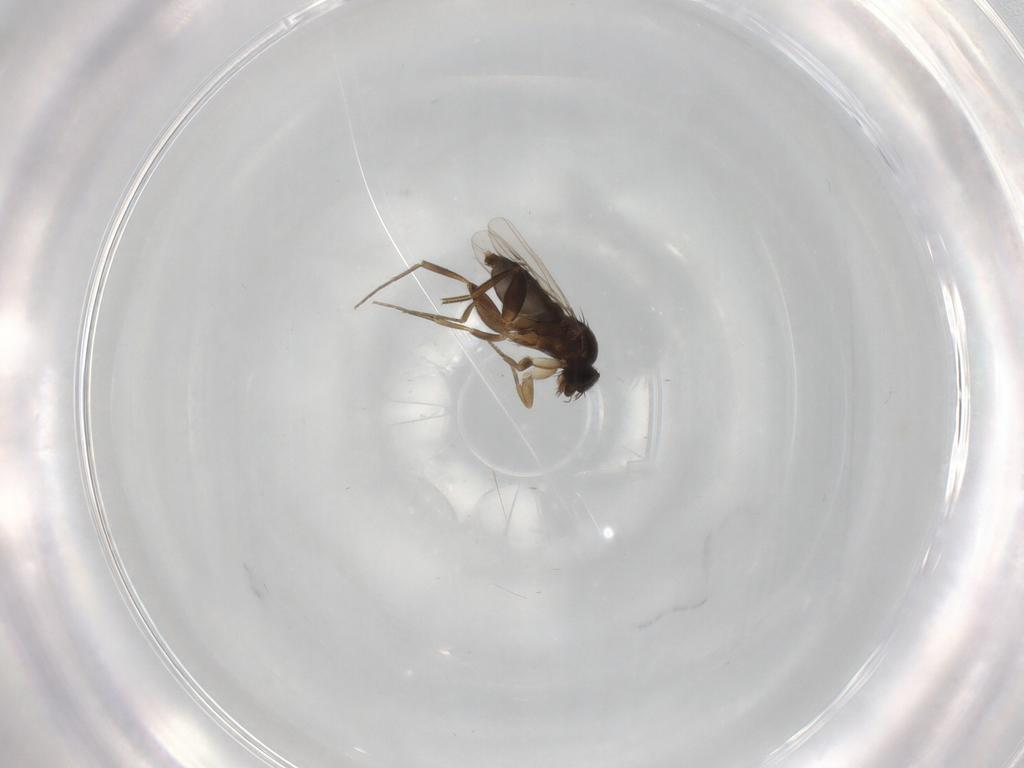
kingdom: Animalia
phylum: Arthropoda
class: Insecta
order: Diptera
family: Phoridae
